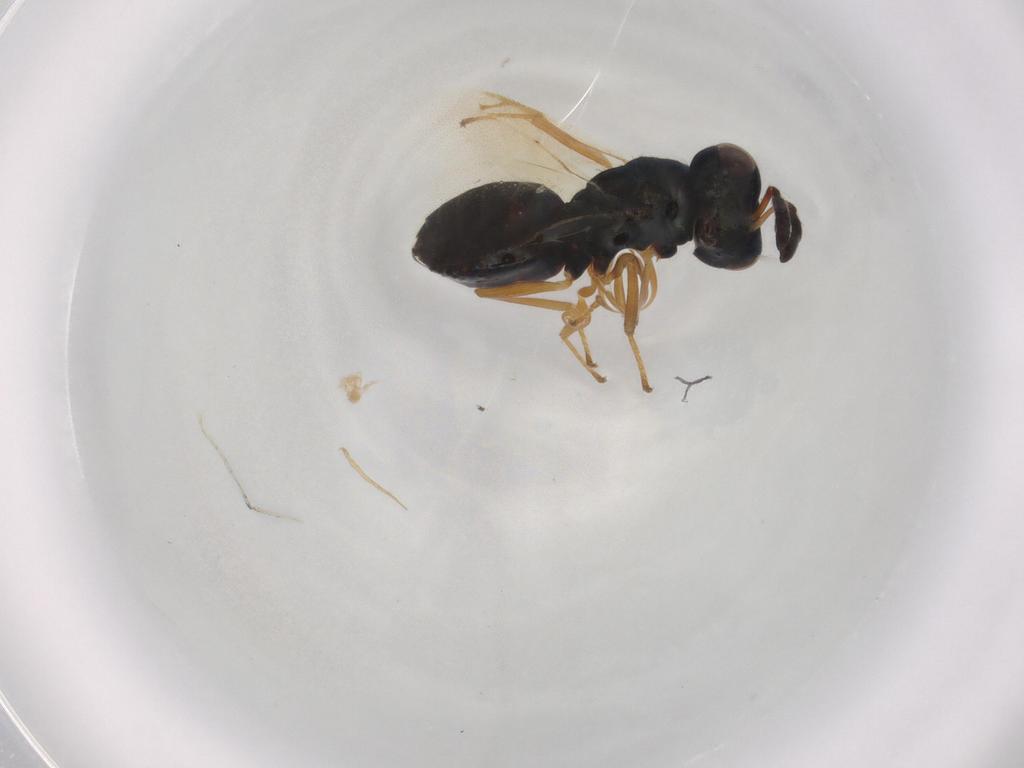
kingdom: Animalia
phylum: Arthropoda
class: Insecta
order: Hymenoptera
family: Pteromalidae
